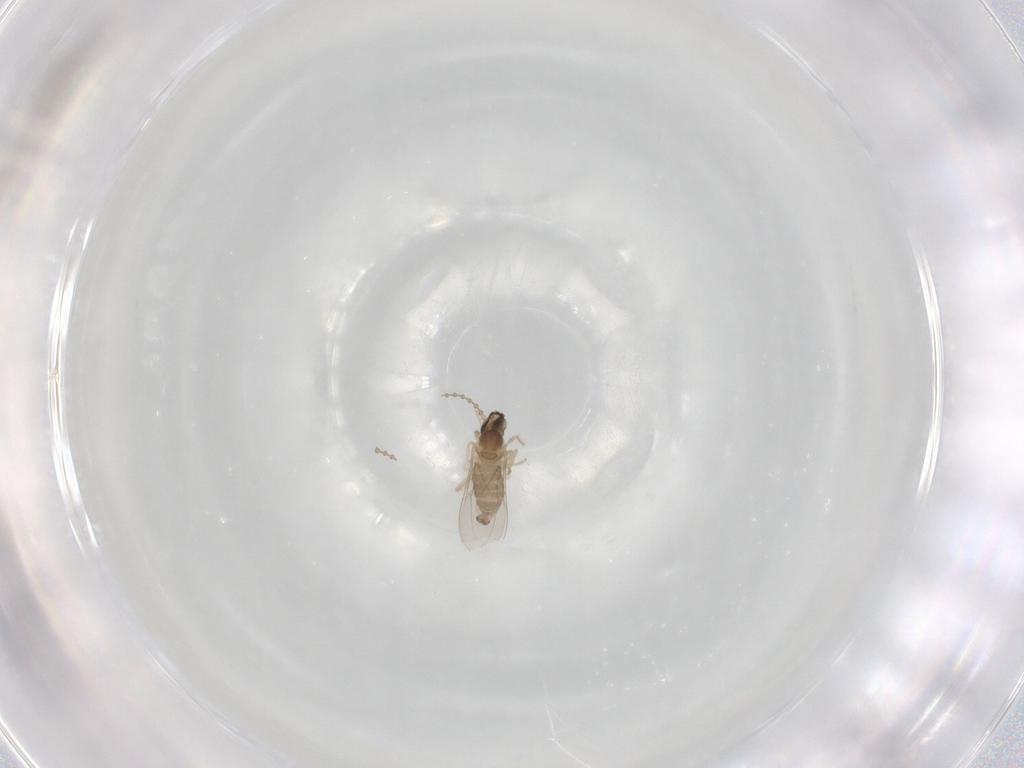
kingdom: Animalia
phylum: Arthropoda
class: Insecta
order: Diptera
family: Cecidomyiidae
